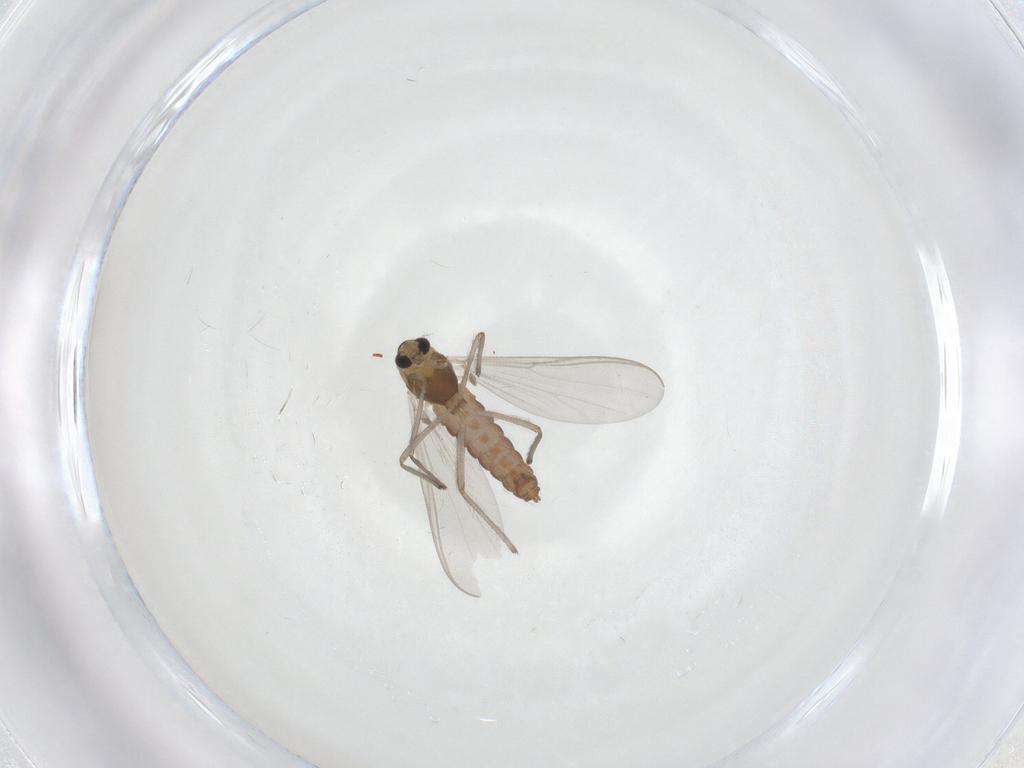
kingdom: Animalia
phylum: Arthropoda
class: Insecta
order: Diptera
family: Chironomidae
